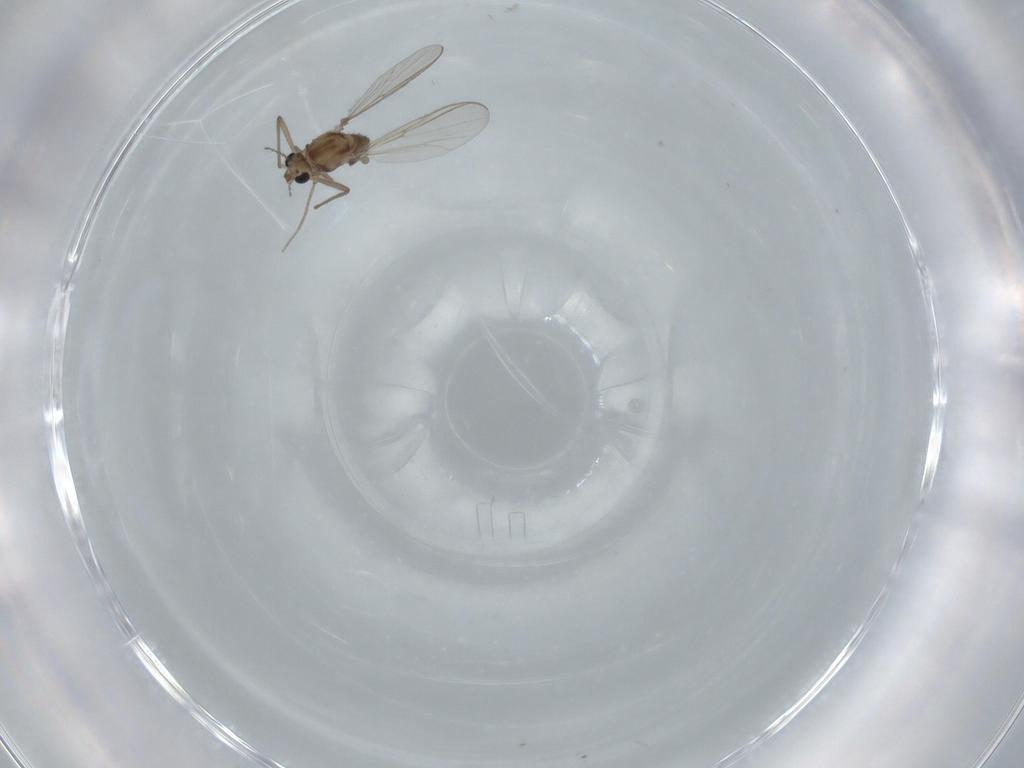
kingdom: Animalia
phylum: Arthropoda
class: Insecta
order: Diptera
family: Chironomidae
